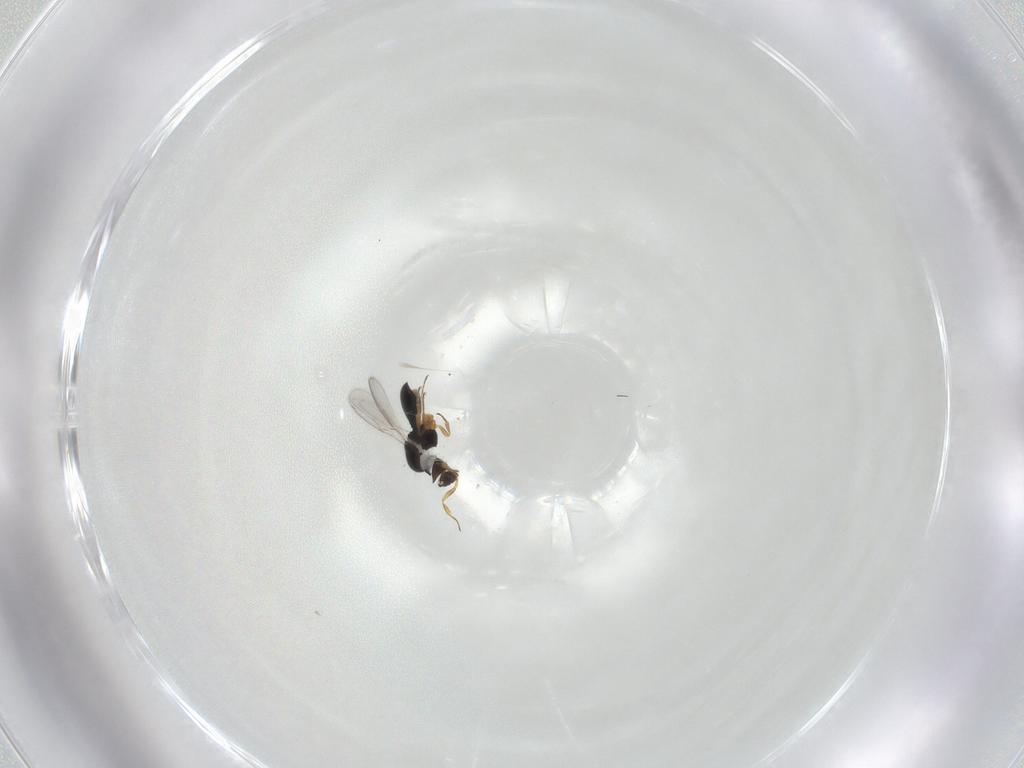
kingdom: Animalia
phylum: Arthropoda
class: Insecta
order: Hymenoptera
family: Scelionidae
